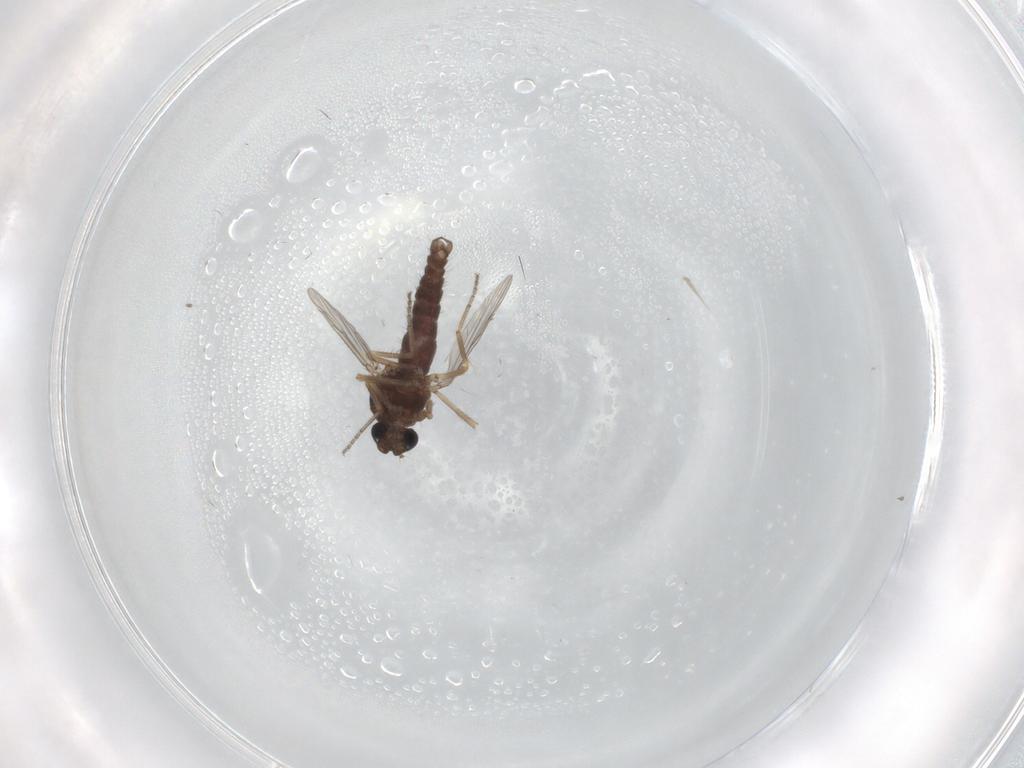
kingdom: Animalia
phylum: Arthropoda
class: Insecta
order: Diptera
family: Ceratopogonidae
